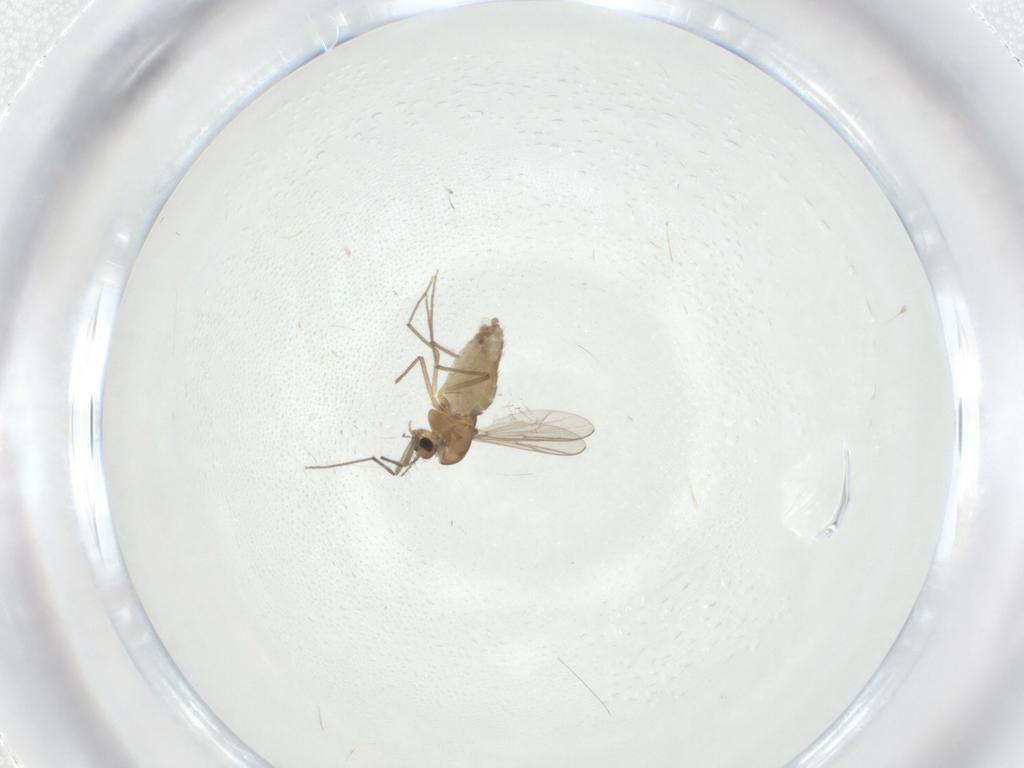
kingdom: Animalia
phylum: Arthropoda
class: Insecta
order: Diptera
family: Chironomidae
